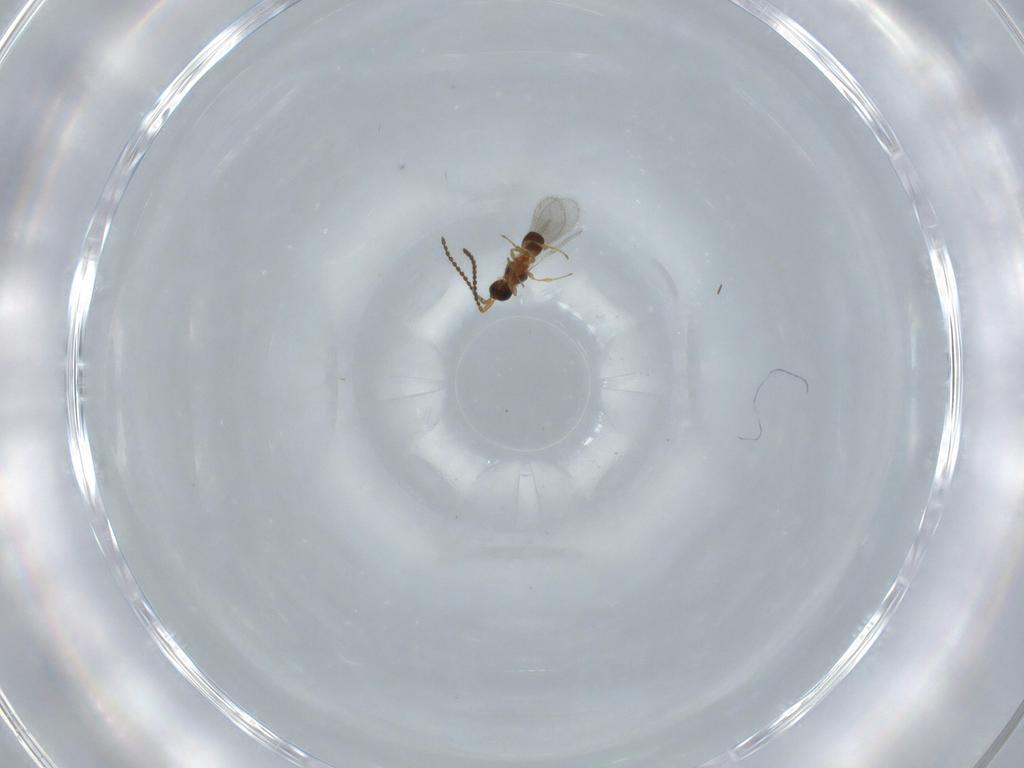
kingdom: Animalia
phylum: Arthropoda
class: Insecta
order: Hymenoptera
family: Diapriidae
